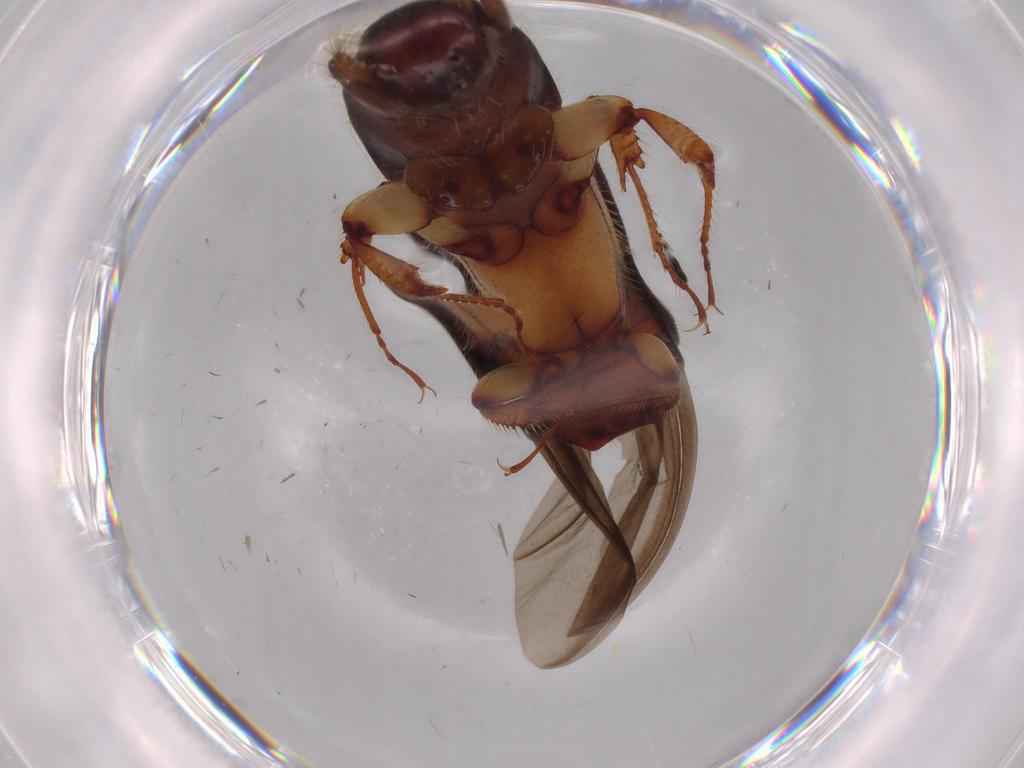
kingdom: Animalia
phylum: Arthropoda
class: Insecta
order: Coleoptera
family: Curculionidae
